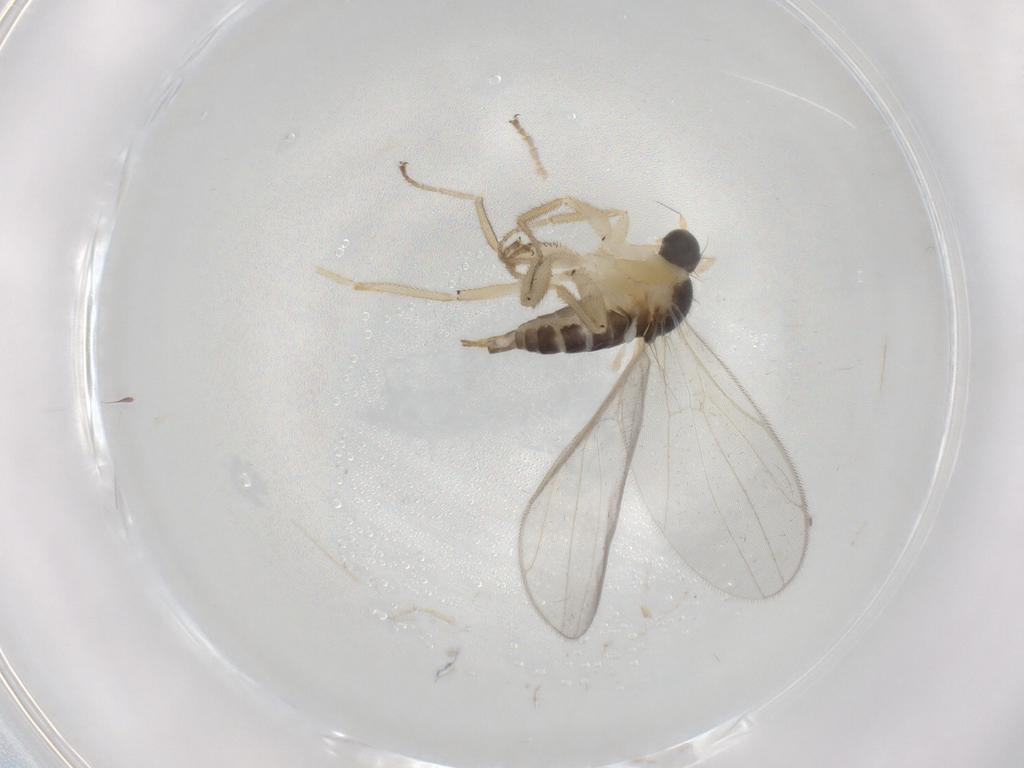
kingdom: Animalia
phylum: Arthropoda
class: Insecta
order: Diptera
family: Chironomidae
